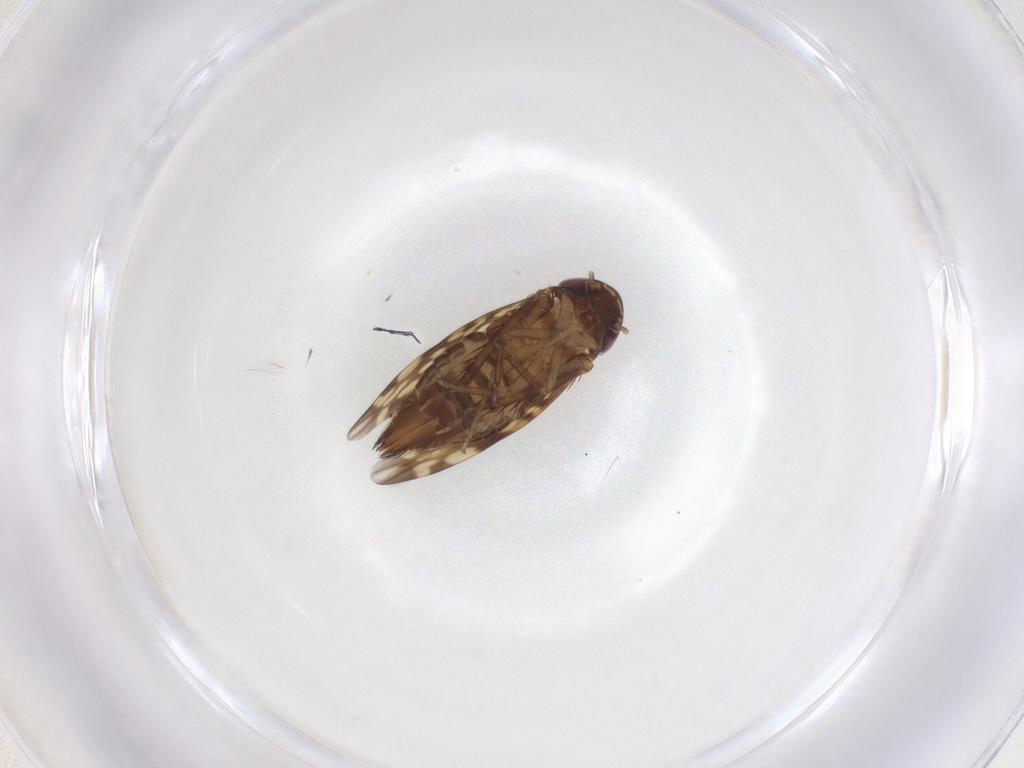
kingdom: Animalia
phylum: Arthropoda
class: Insecta
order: Hemiptera
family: Cicadellidae
